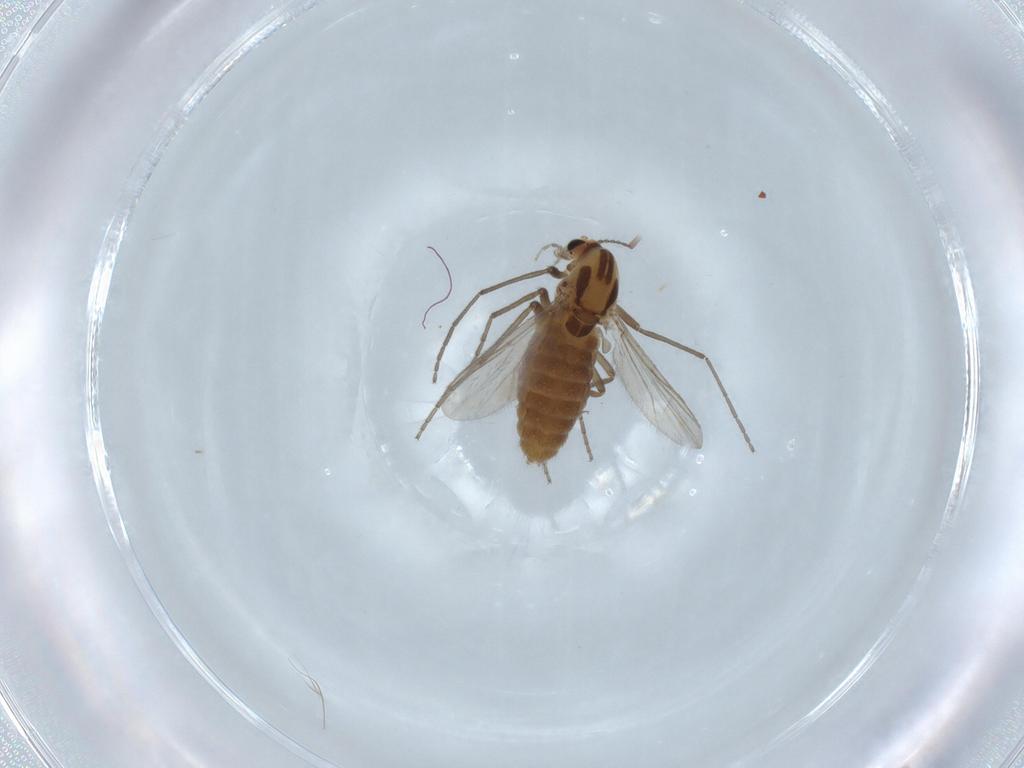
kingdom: Animalia
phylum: Arthropoda
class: Insecta
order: Diptera
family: Chironomidae
